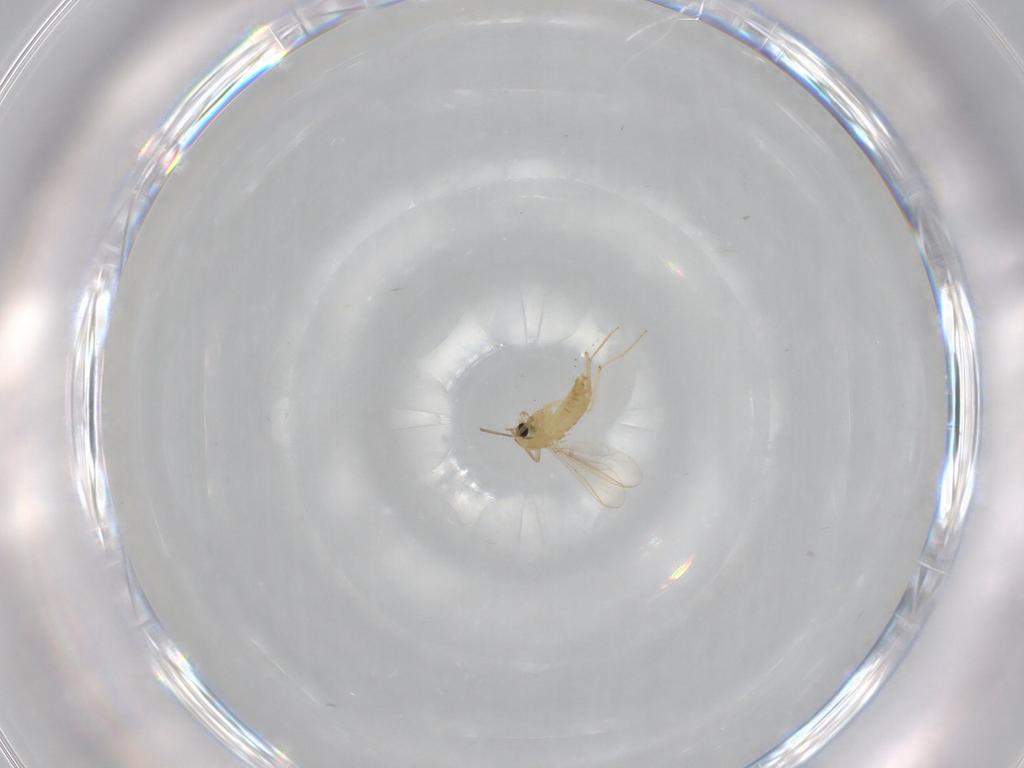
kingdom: Animalia
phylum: Arthropoda
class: Insecta
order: Diptera
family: Chironomidae
